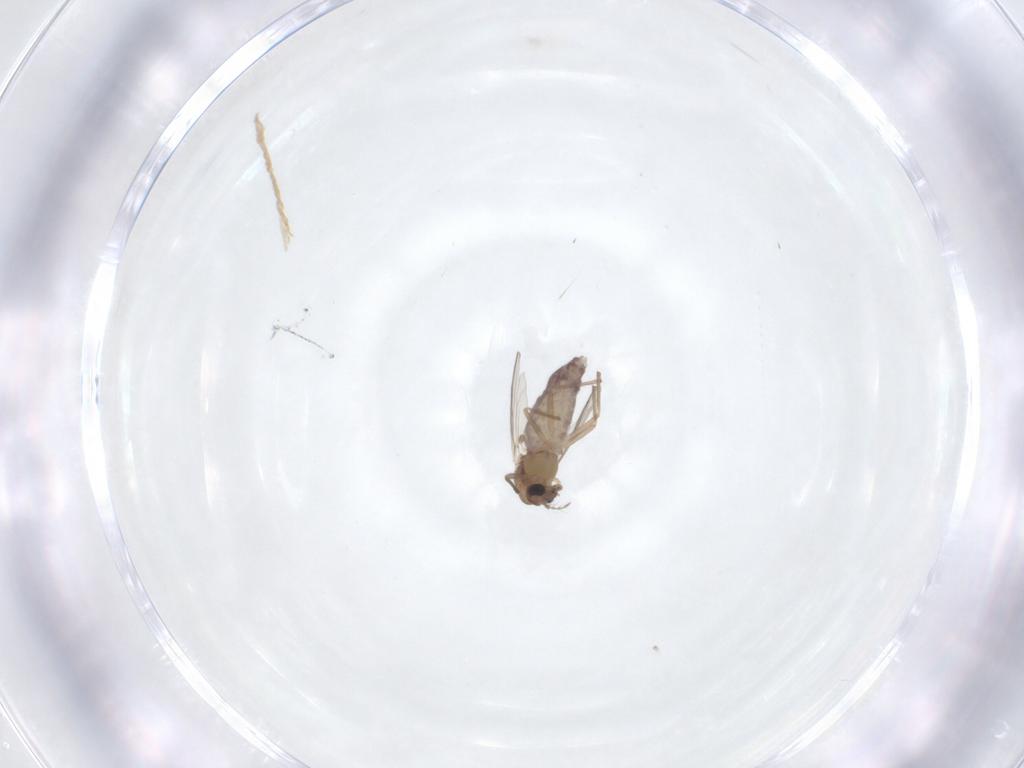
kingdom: Animalia
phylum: Arthropoda
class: Insecta
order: Diptera
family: Chironomidae
